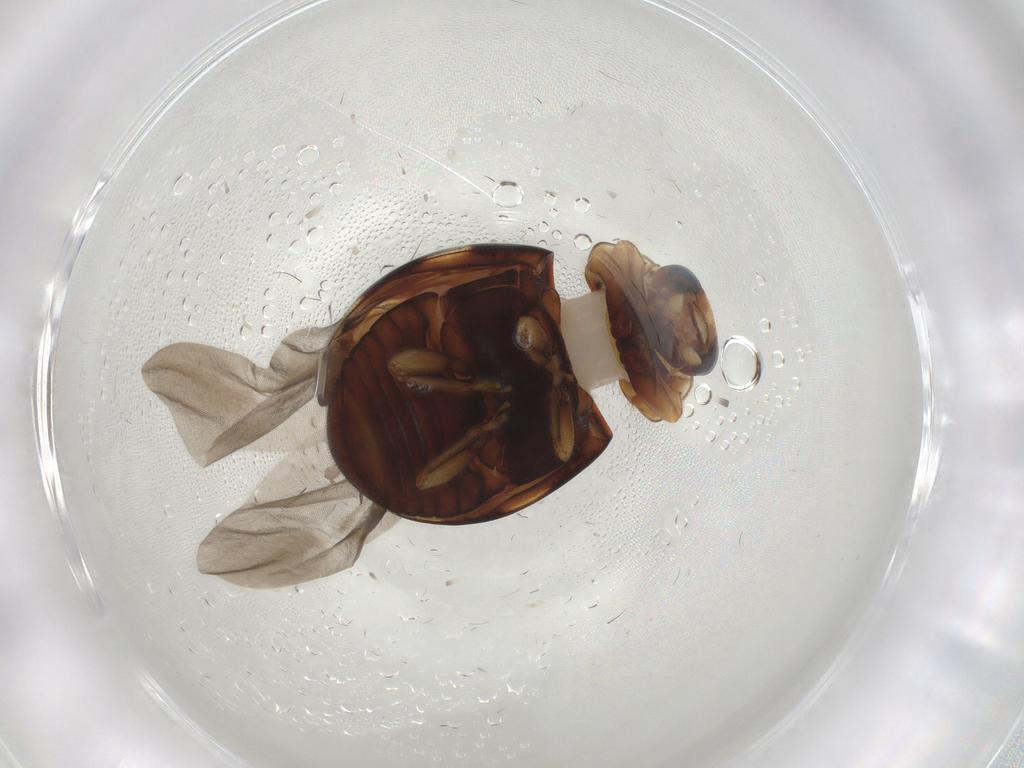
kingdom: Animalia
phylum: Arthropoda
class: Insecta
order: Coleoptera
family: Coccinellidae
